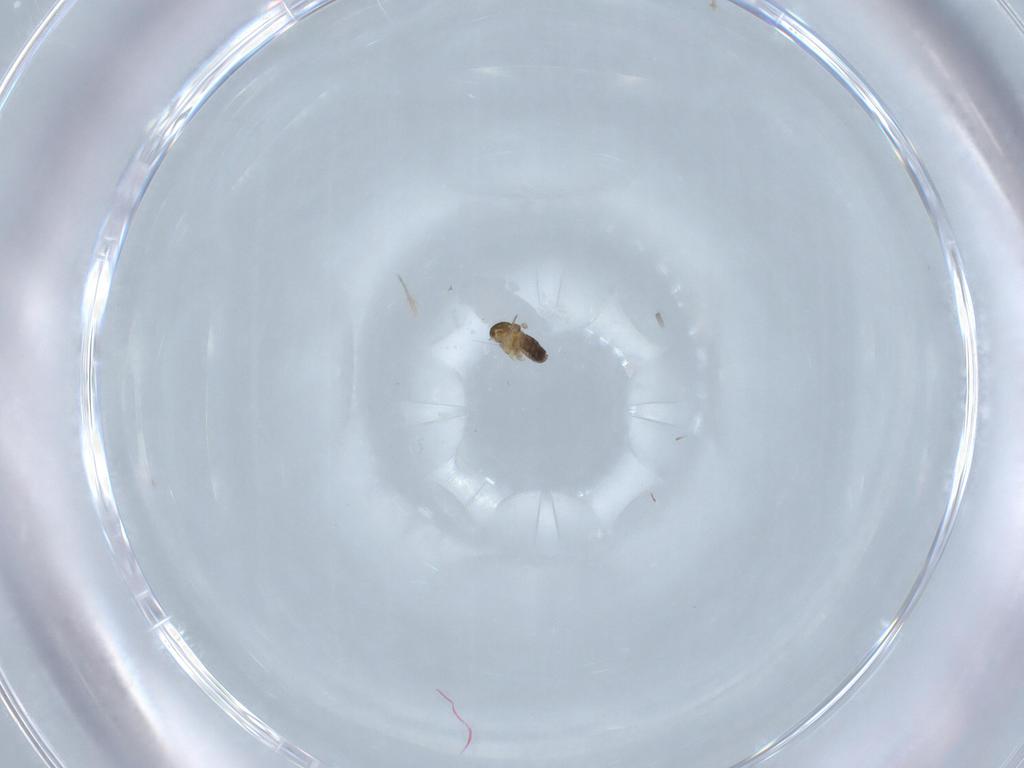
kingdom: Animalia
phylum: Arthropoda
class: Insecta
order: Diptera
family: Cecidomyiidae
